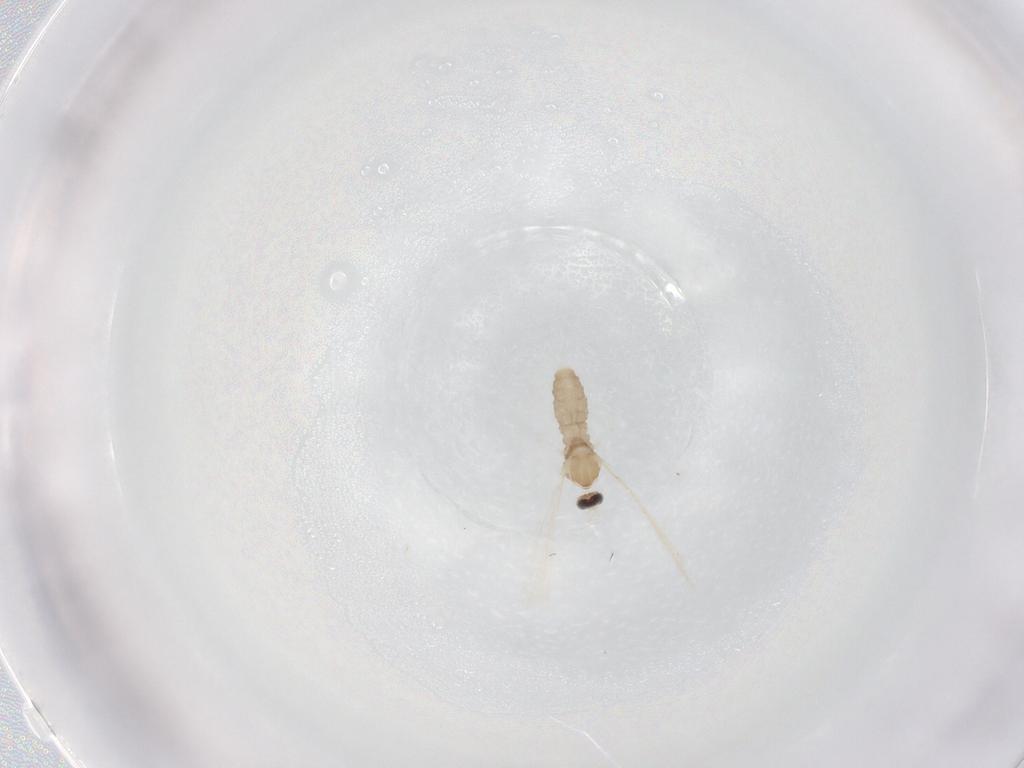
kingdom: Animalia
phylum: Arthropoda
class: Insecta
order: Diptera
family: Cecidomyiidae
